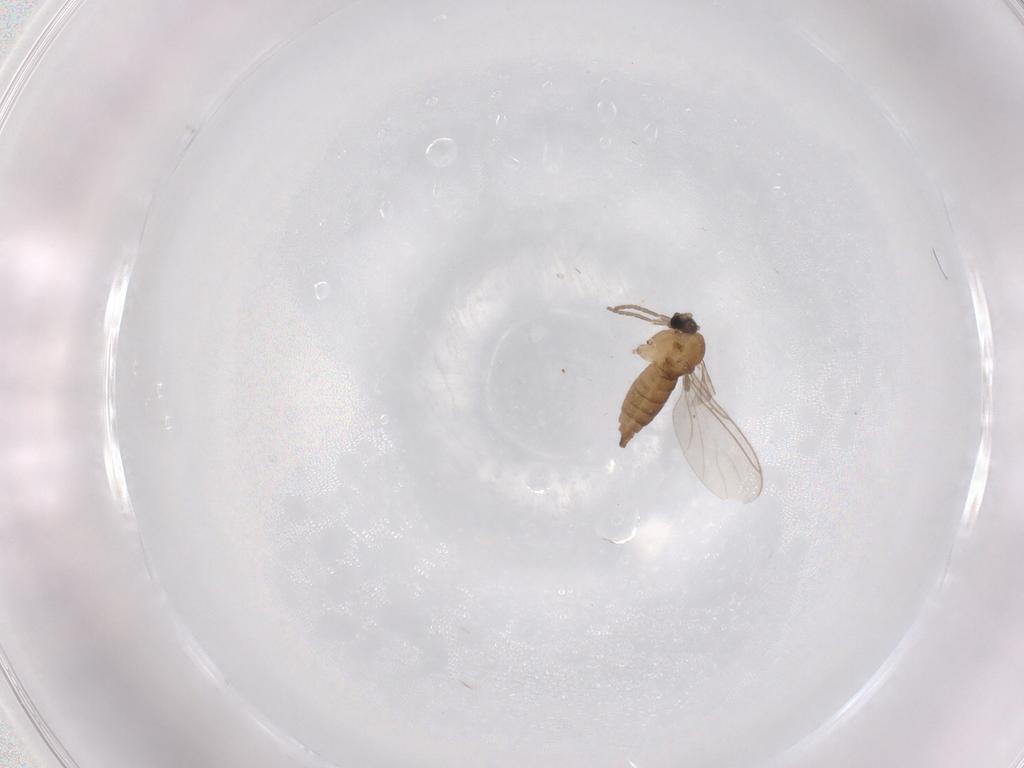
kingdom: Animalia
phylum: Arthropoda
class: Insecta
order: Diptera
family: Sciaridae
